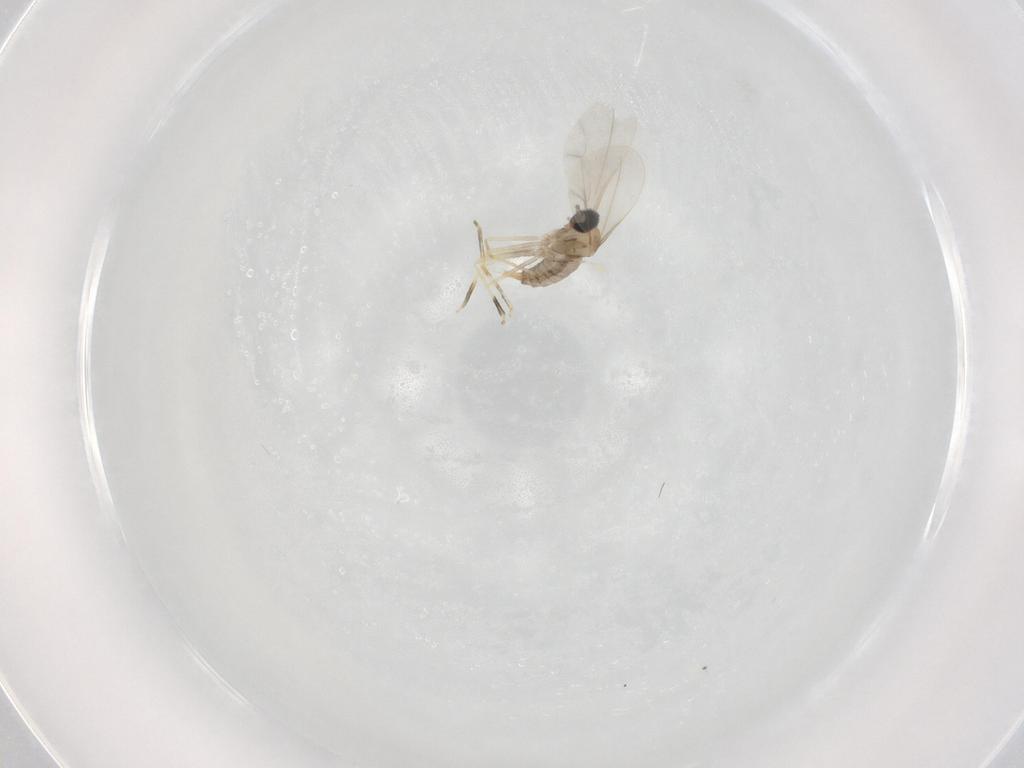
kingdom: Animalia
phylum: Arthropoda
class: Insecta
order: Diptera
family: Cecidomyiidae
